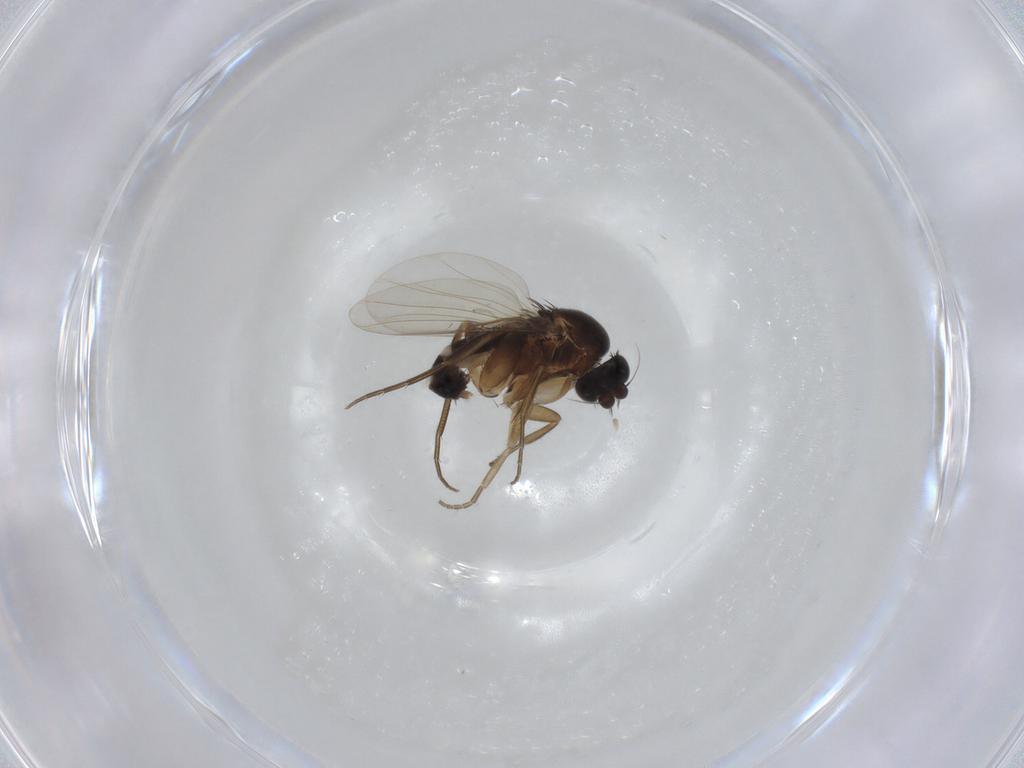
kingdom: Animalia
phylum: Arthropoda
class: Insecta
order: Diptera
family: Phoridae
